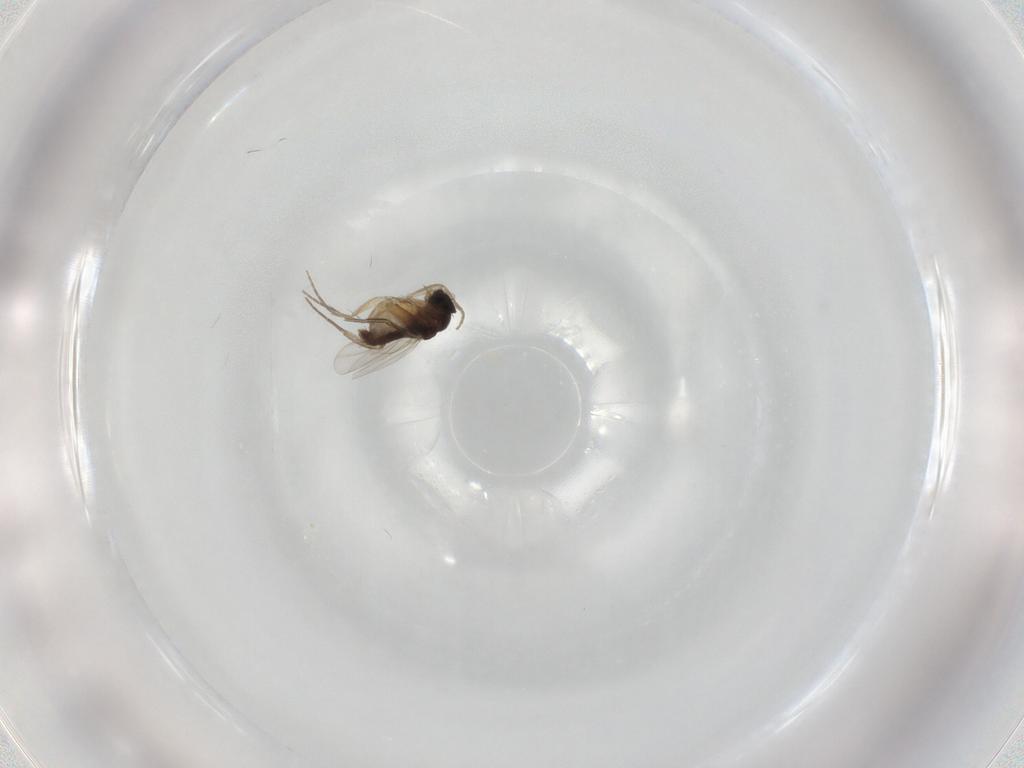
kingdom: Animalia
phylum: Arthropoda
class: Insecta
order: Diptera
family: Phoridae
